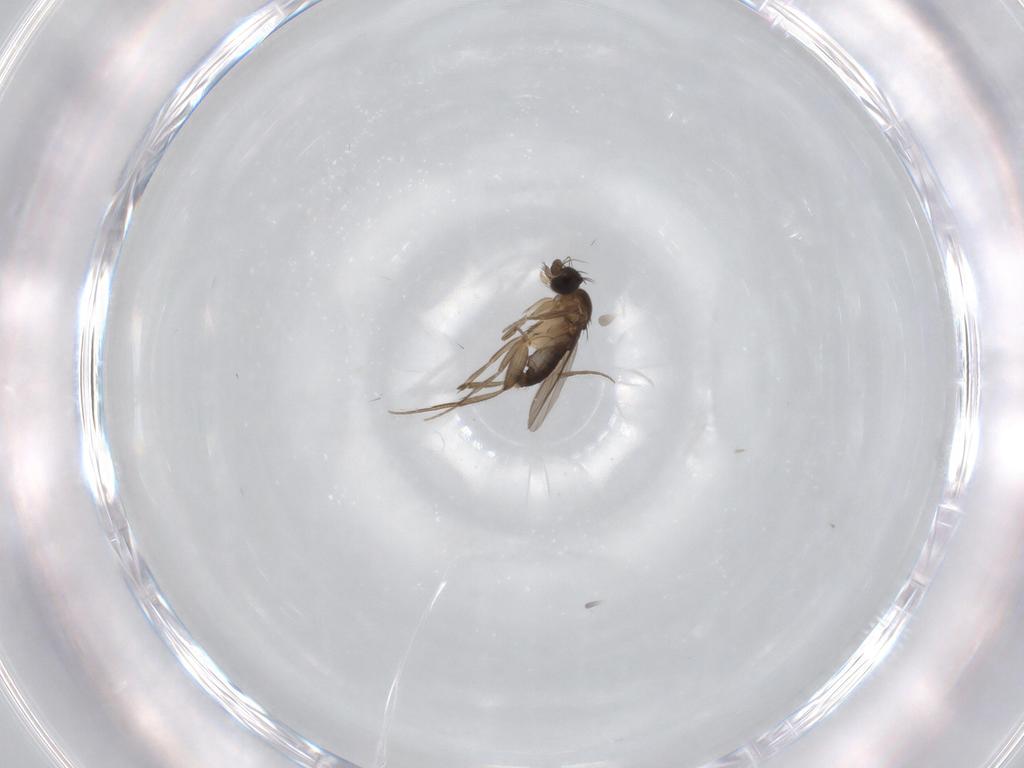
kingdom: Animalia
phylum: Arthropoda
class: Insecta
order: Diptera
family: Phoridae
